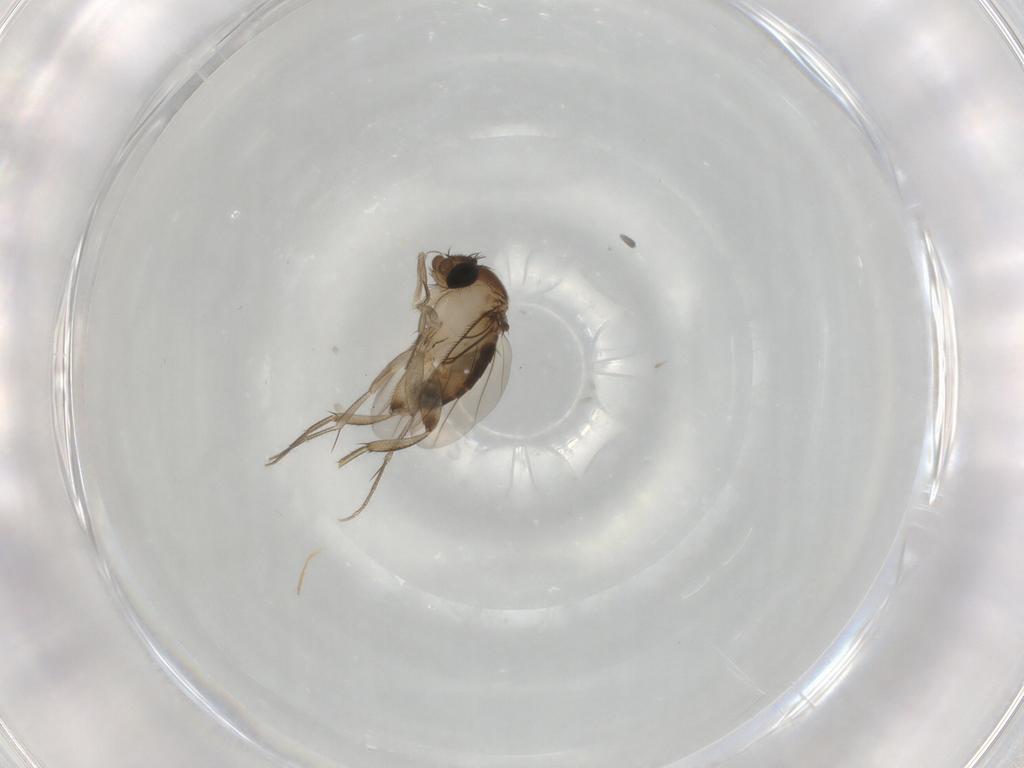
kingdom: Animalia
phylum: Arthropoda
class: Insecta
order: Diptera
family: Phoridae
